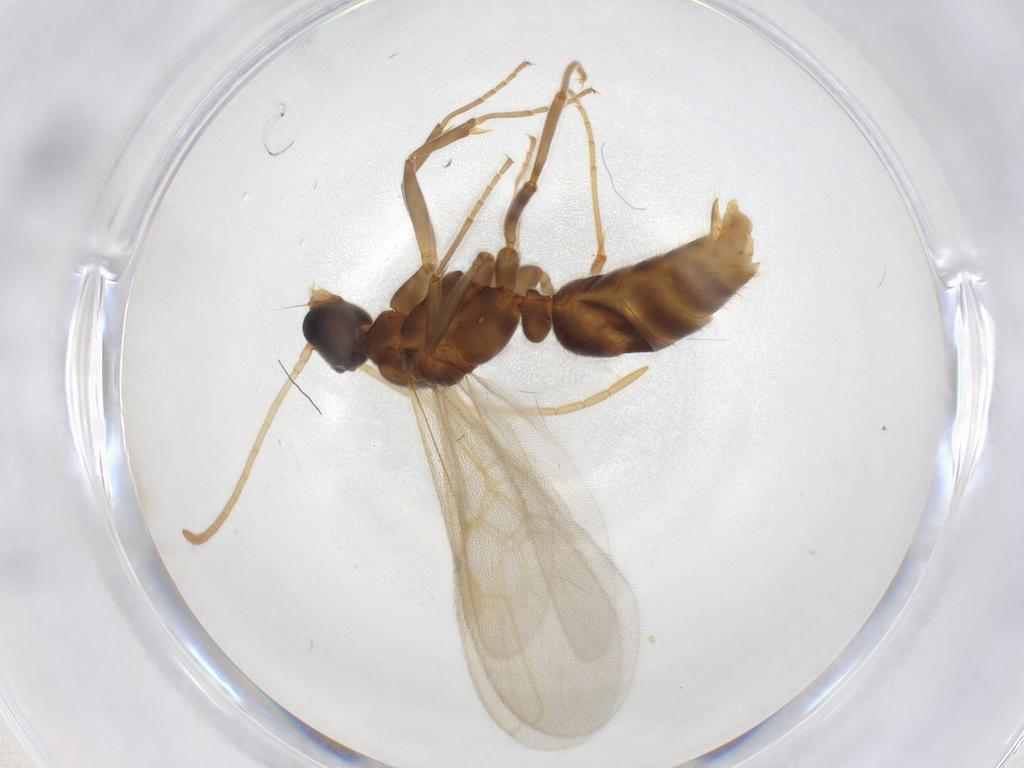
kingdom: Animalia
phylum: Arthropoda
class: Insecta
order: Hymenoptera
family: Formicidae
